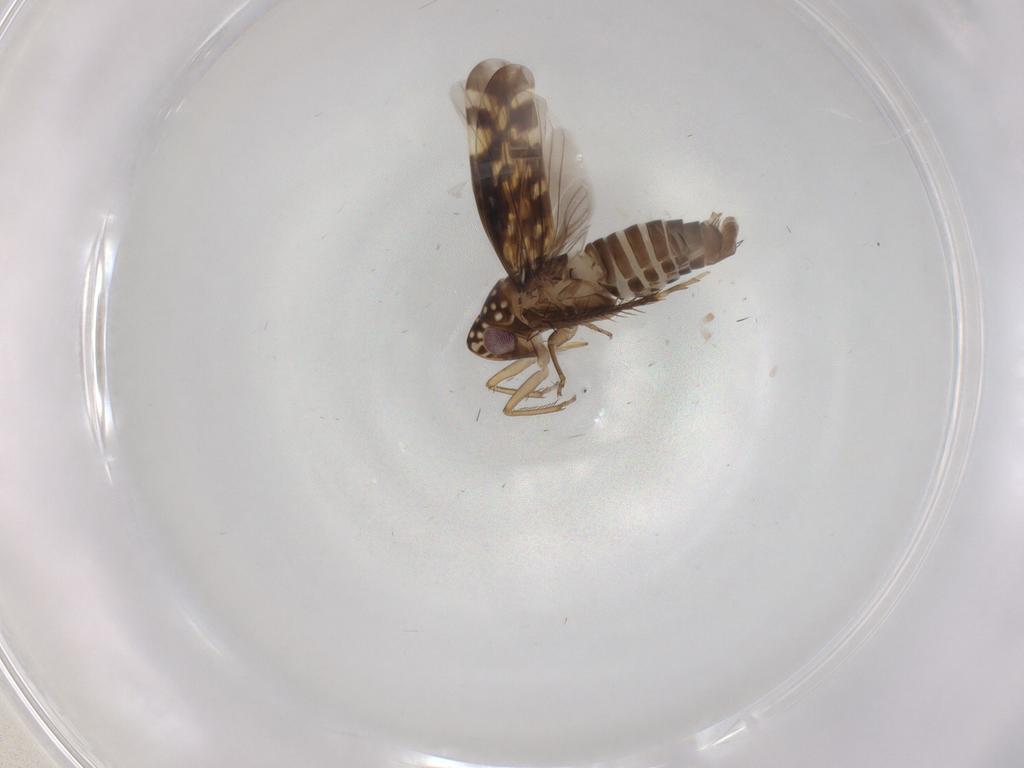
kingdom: Animalia
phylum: Arthropoda
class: Insecta
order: Hemiptera
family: Cicadellidae
